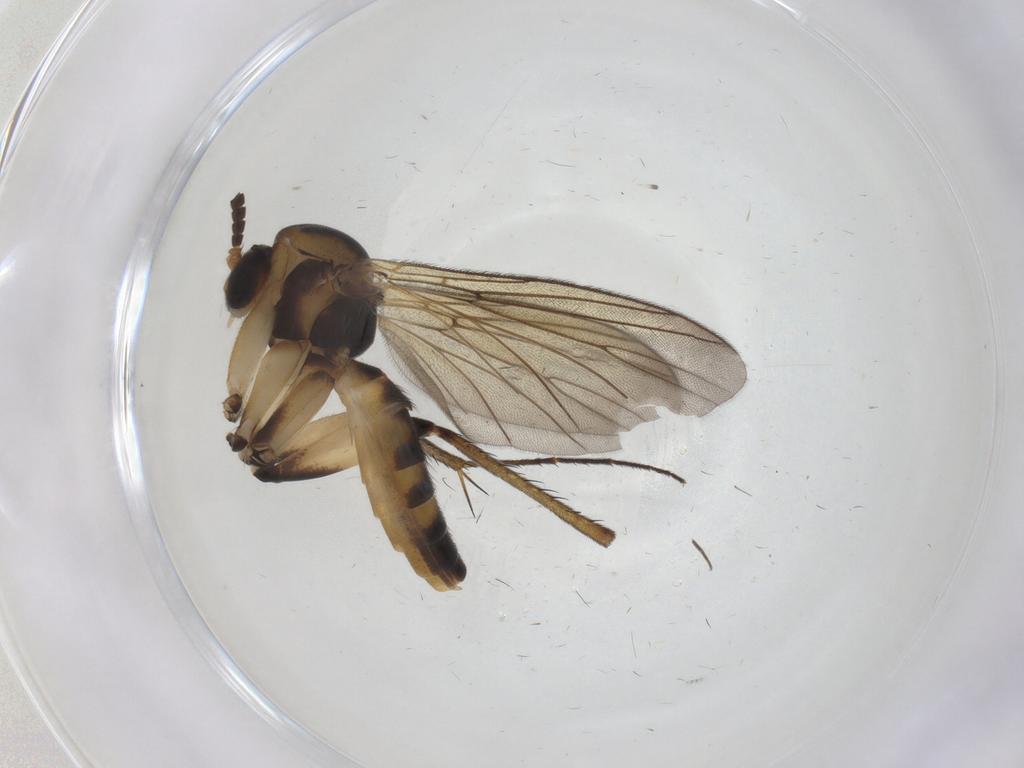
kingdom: Animalia
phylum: Arthropoda
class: Insecta
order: Diptera
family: Mycetophilidae
